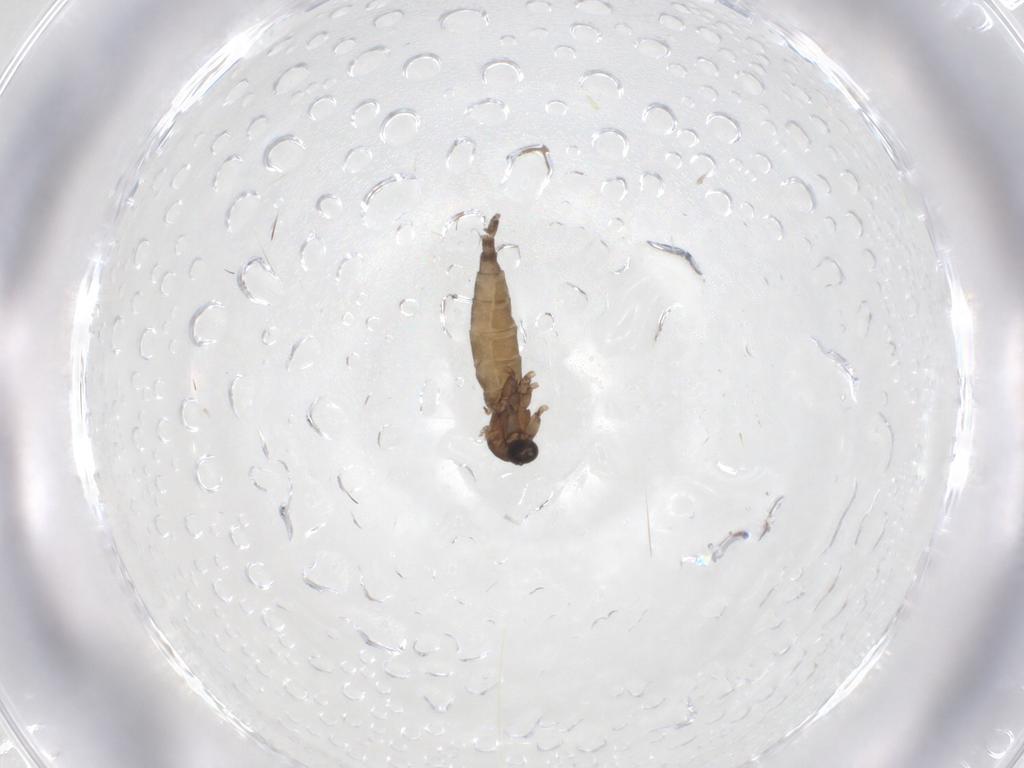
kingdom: Animalia
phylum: Arthropoda
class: Insecta
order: Diptera
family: Sciaridae
